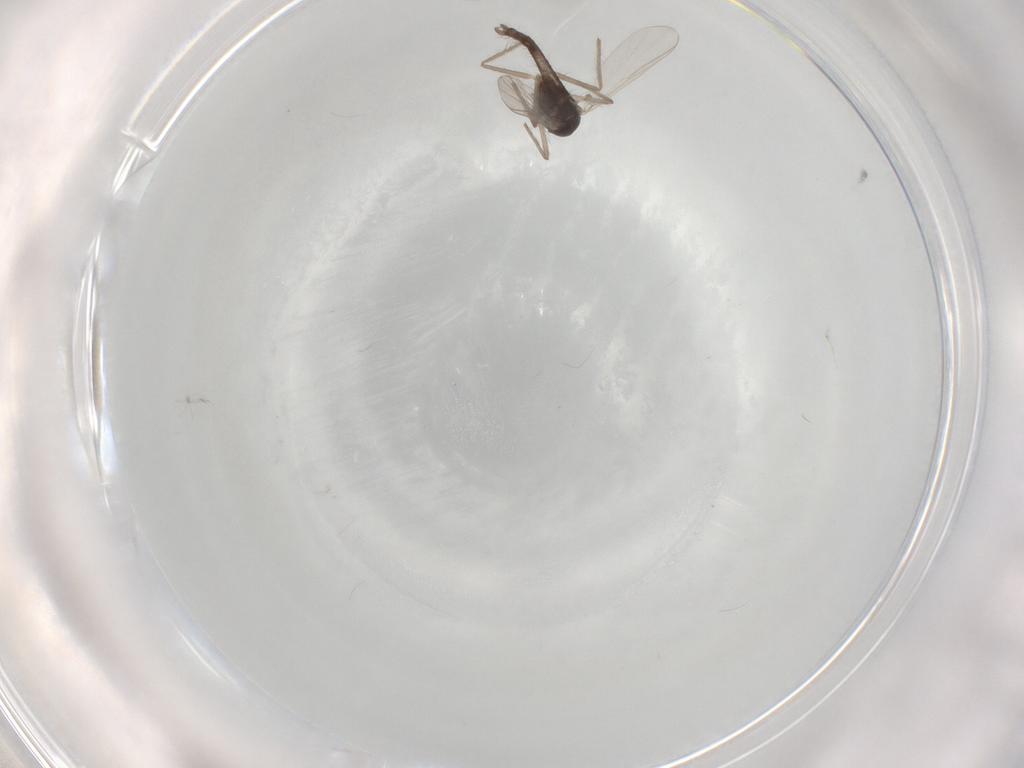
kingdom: Animalia
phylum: Arthropoda
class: Insecta
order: Diptera
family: Chironomidae
